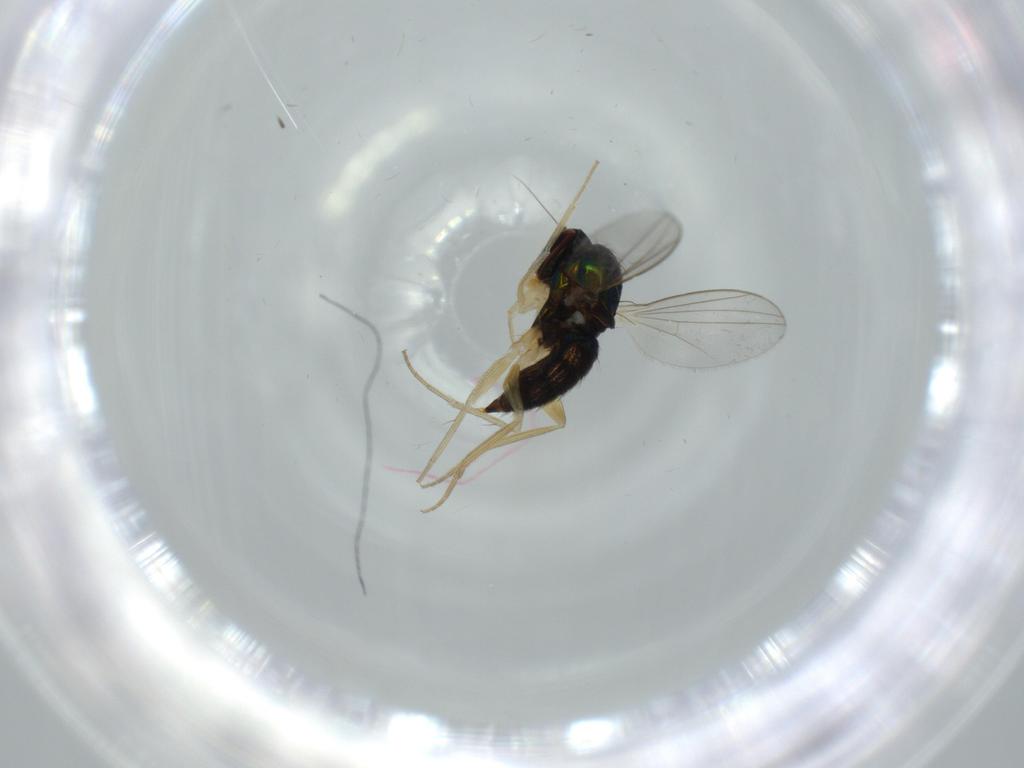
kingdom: Animalia
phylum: Arthropoda
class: Insecta
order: Diptera
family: Dolichopodidae
